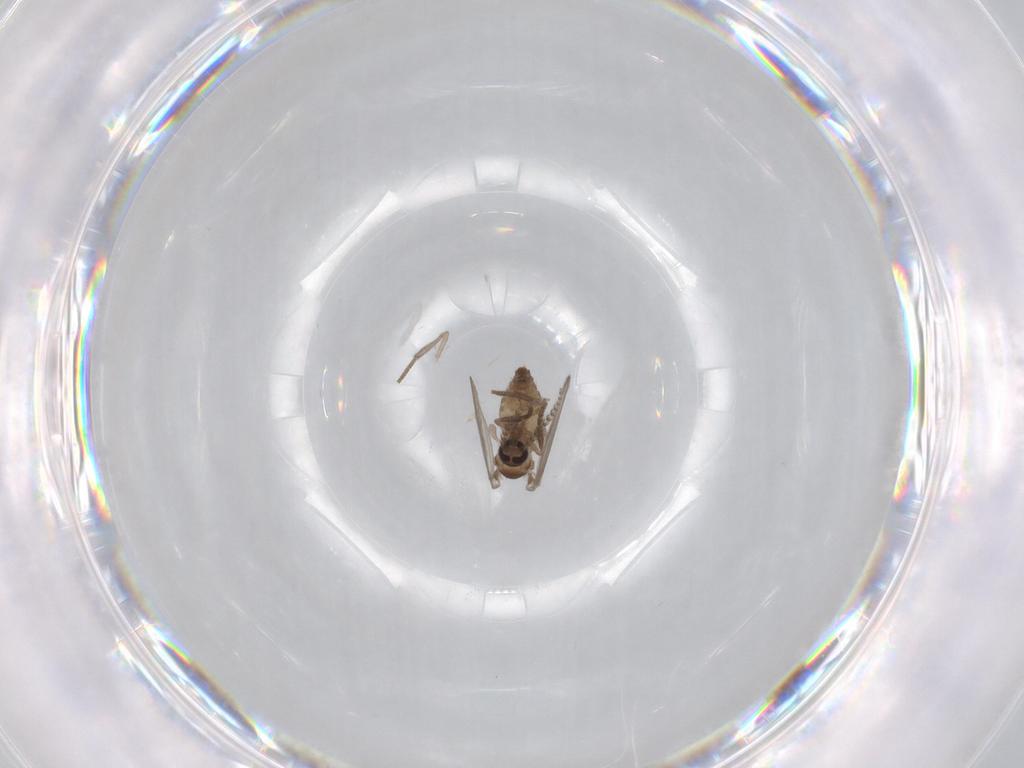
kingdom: Animalia
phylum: Arthropoda
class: Insecta
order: Diptera
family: Psychodidae
